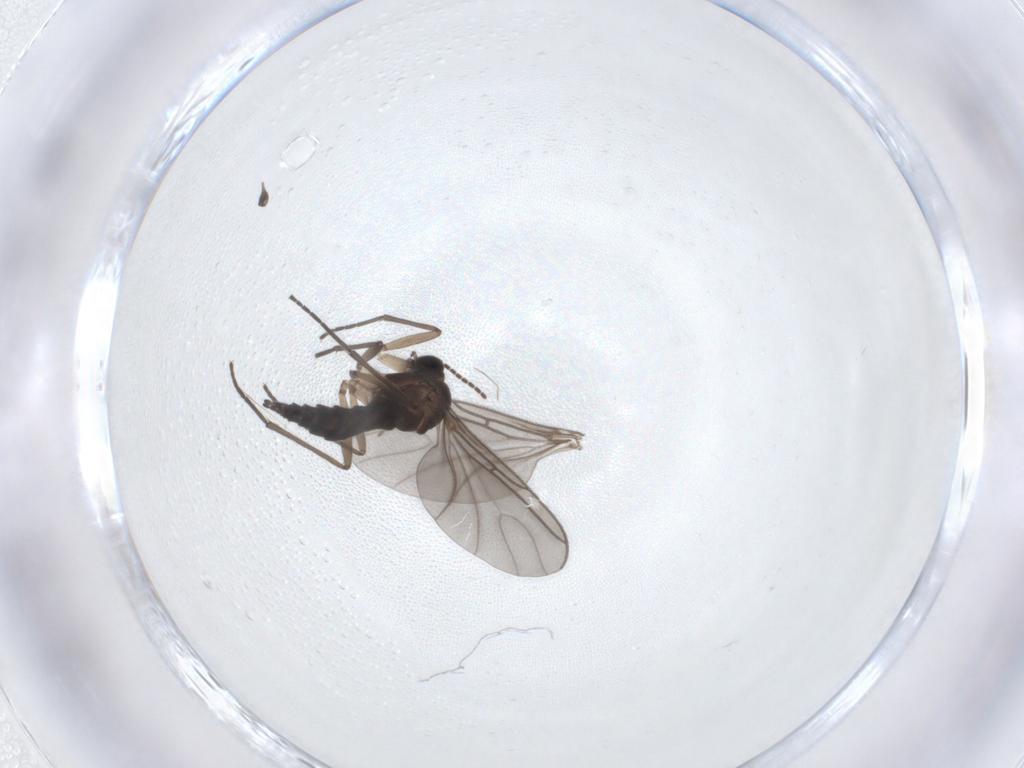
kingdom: Animalia
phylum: Arthropoda
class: Insecta
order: Diptera
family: Sciaridae
